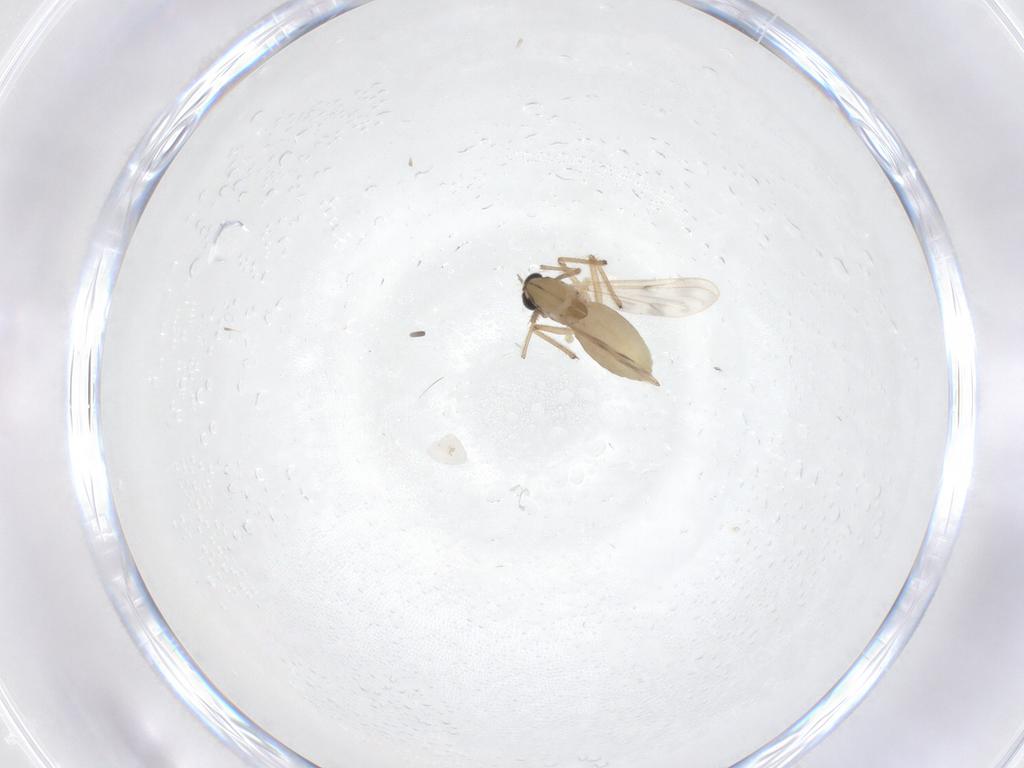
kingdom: Animalia
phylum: Arthropoda
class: Insecta
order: Diptera
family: Chironomidae
